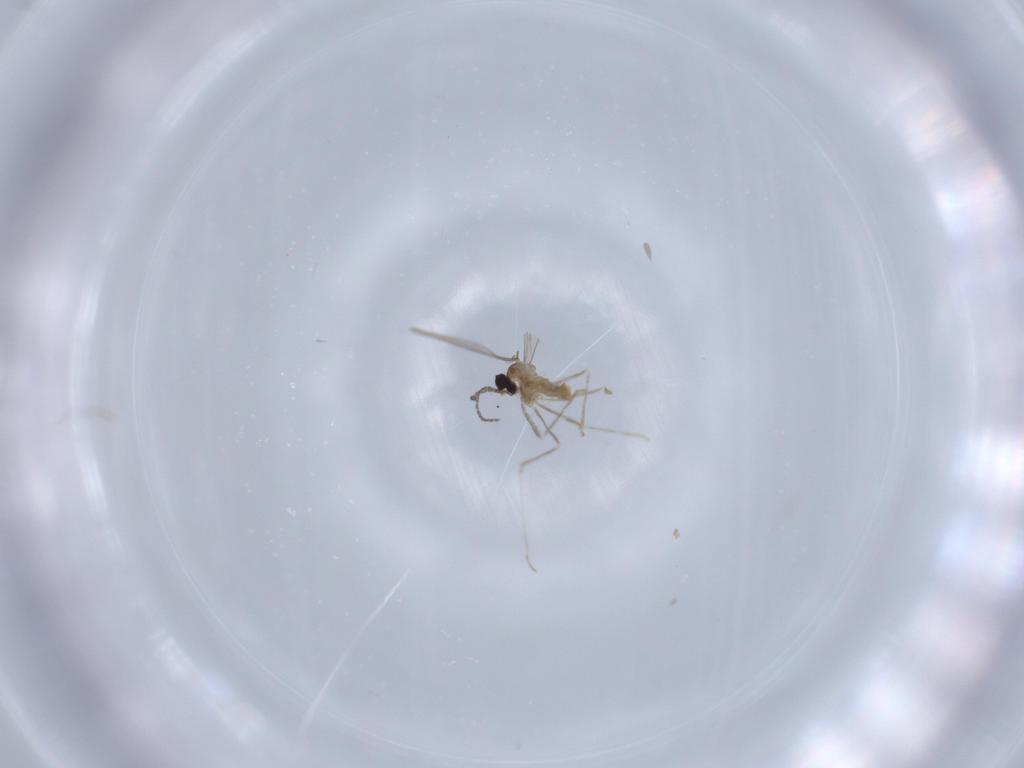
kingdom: Animalia
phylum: Arthropoda
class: Insecta
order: Diptera
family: Cecidomyiidae
